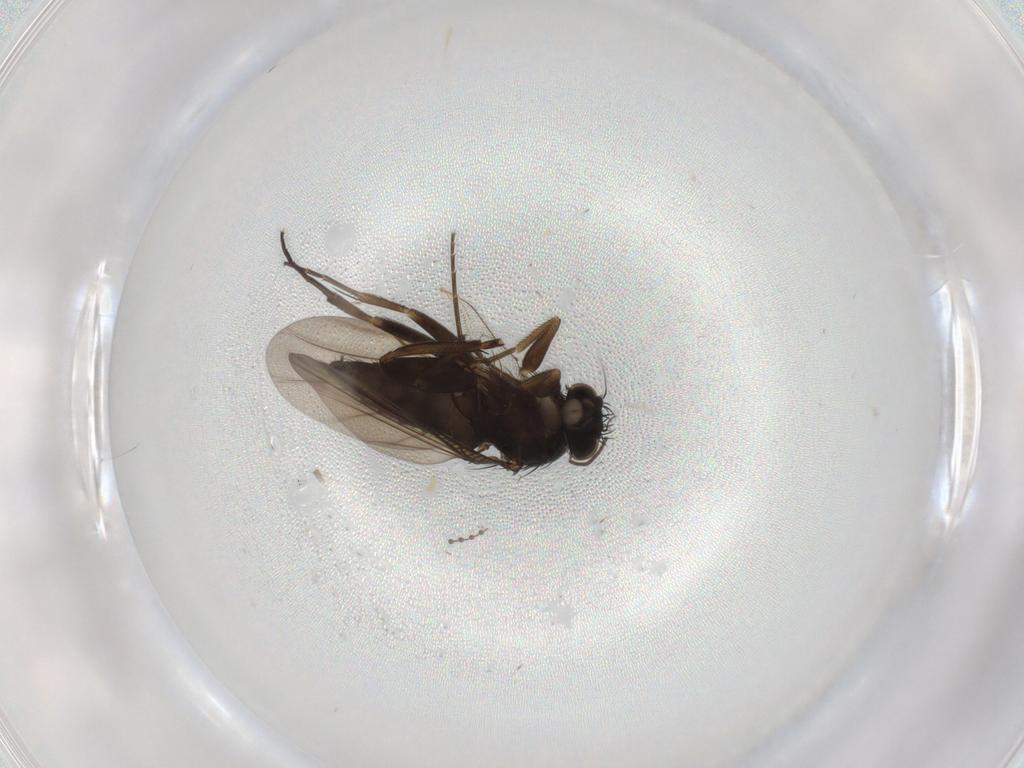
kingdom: Animalia
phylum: Arthropoda
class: Insecta
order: Diptera
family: Phoridae
